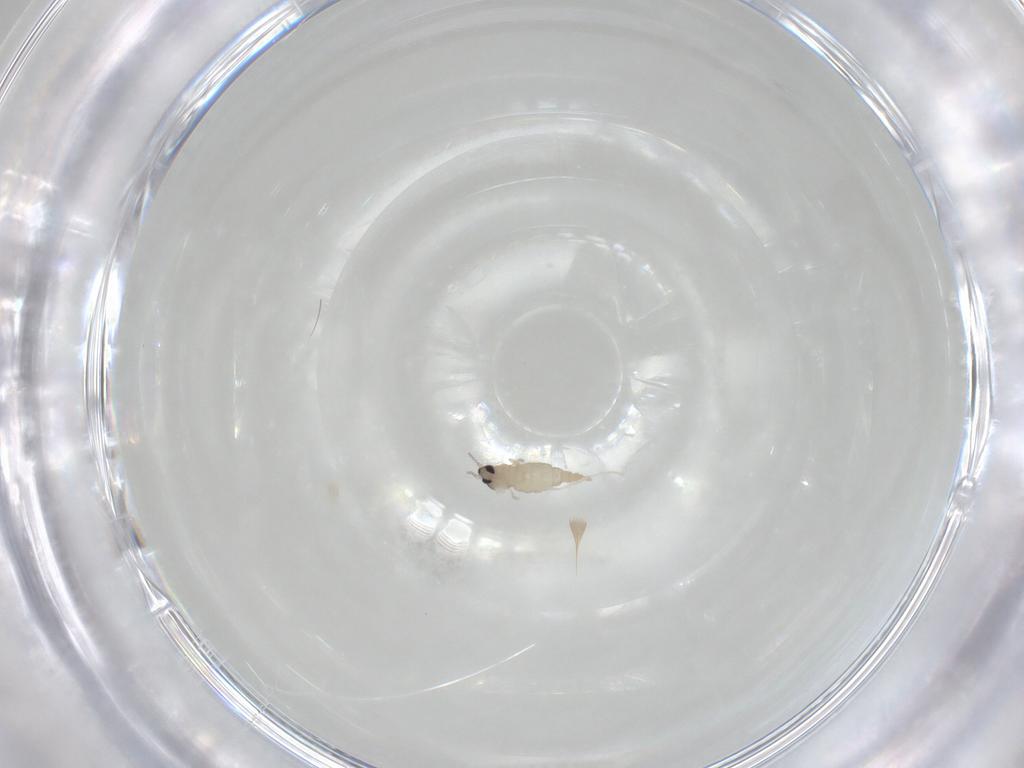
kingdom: Animalia
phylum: Arthropoda
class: Insecta
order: Diptera
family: Cecidomyiidae
